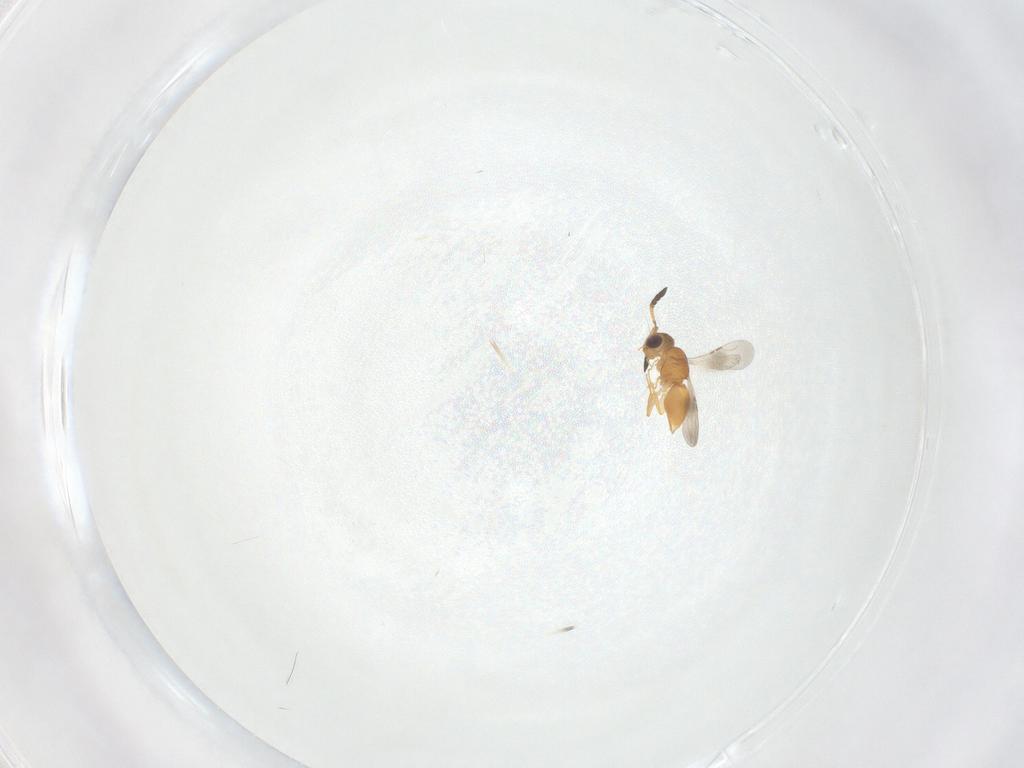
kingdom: Animalia
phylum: Arthropoda
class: Insecta
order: Hymenoptera
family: Ceraphronidae
